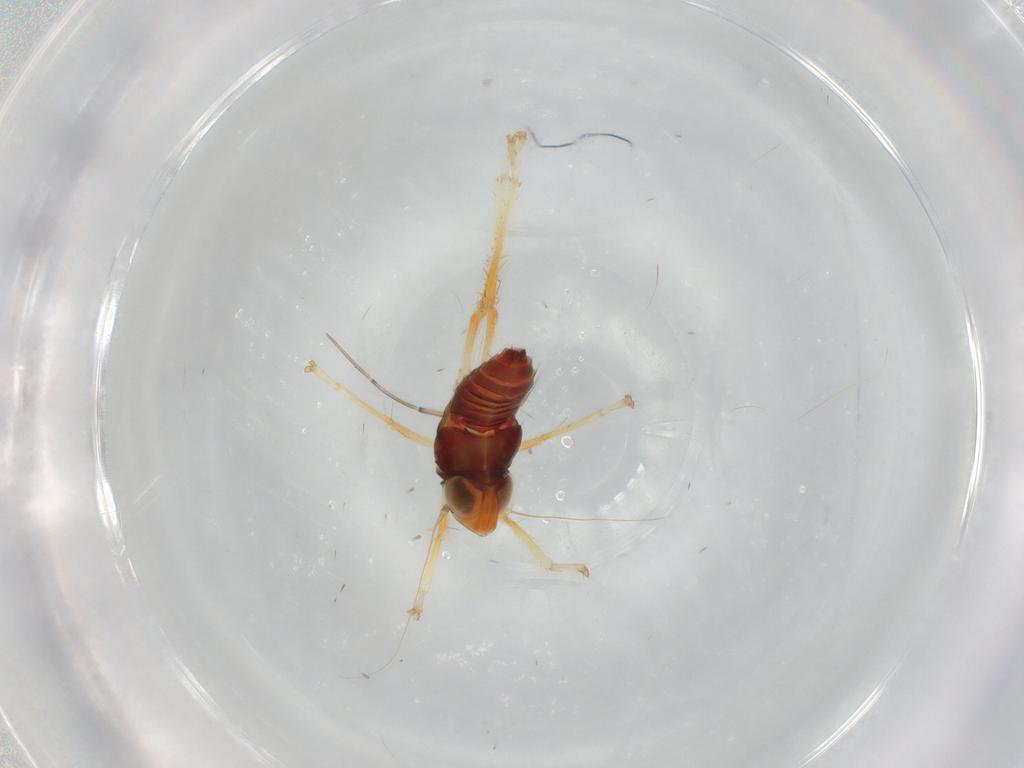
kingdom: Animalia
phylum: Arthropoda
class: Insecta
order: Hemiptera
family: Cicadellidae
